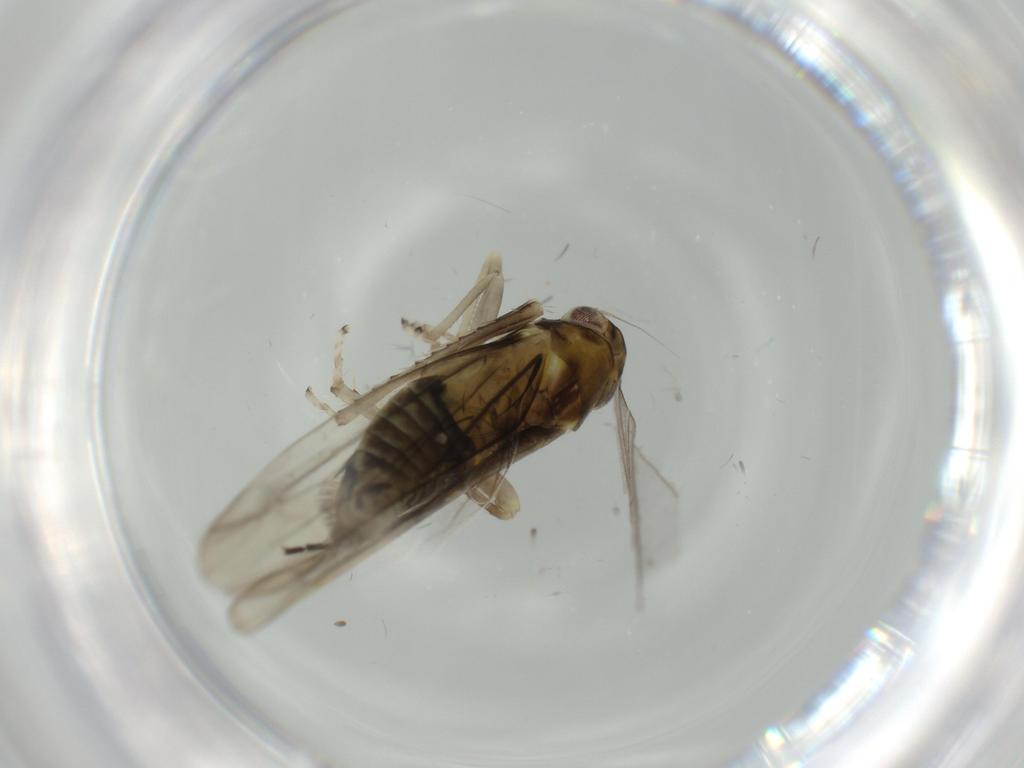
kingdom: Animalia
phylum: Arthropoda
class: Insecta
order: Hemiptera
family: Cicadellidae
